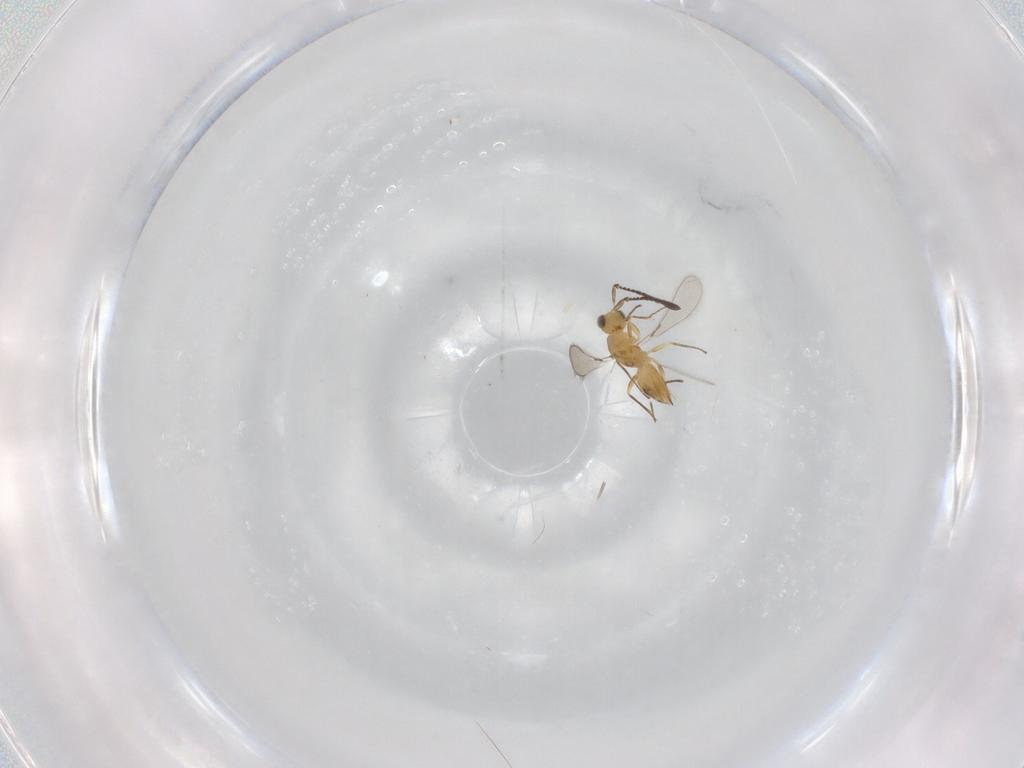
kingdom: Animalia
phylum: Arthropoda
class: Insecta
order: Hymenoptera
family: Mymaridae
